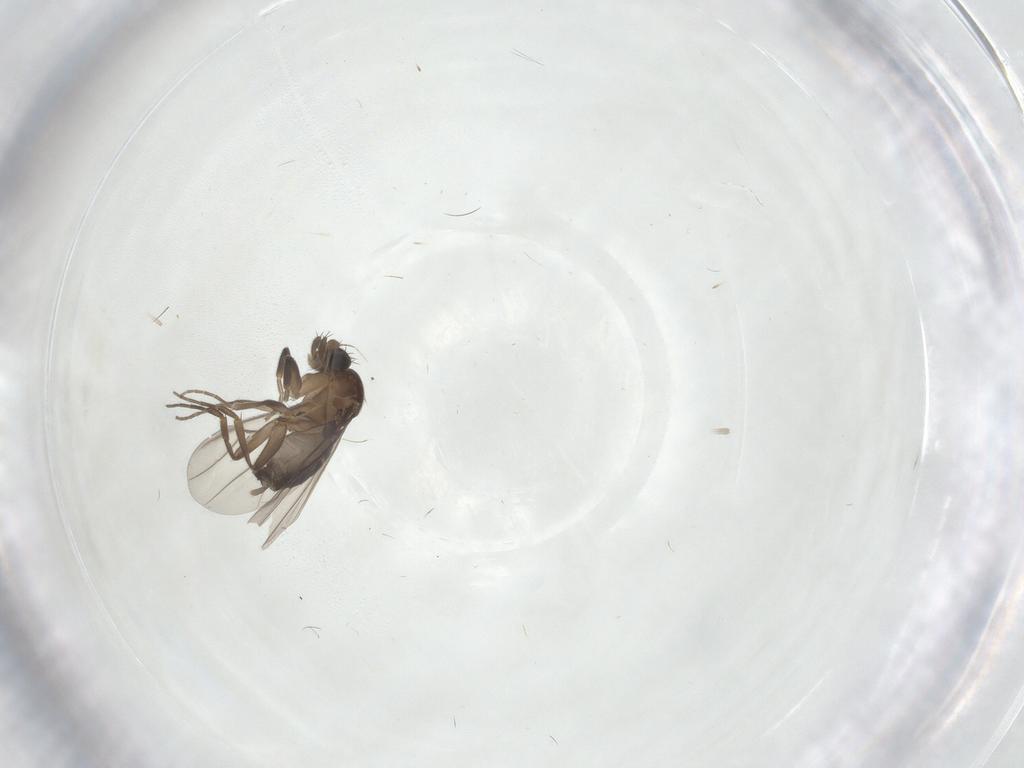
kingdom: Animalia
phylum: Arthropoda
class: Insecta
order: Diptera
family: Phoridae
